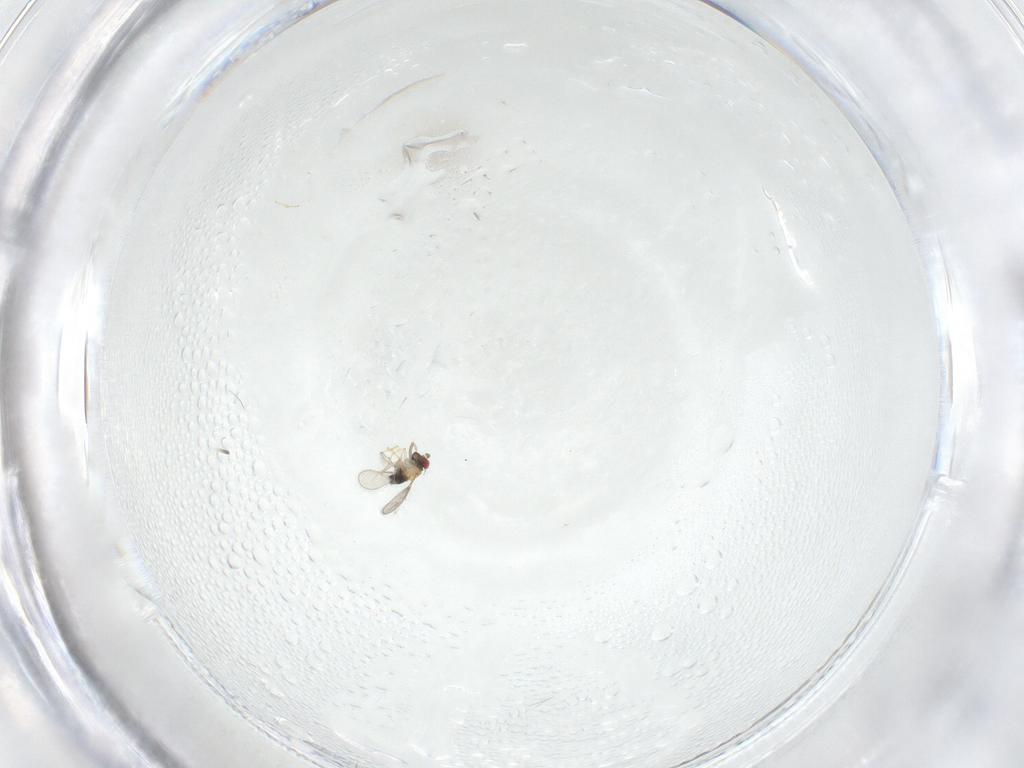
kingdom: Animalia
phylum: Arthropoda
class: Insecta
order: Hymenoptera
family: Aphelinidae
